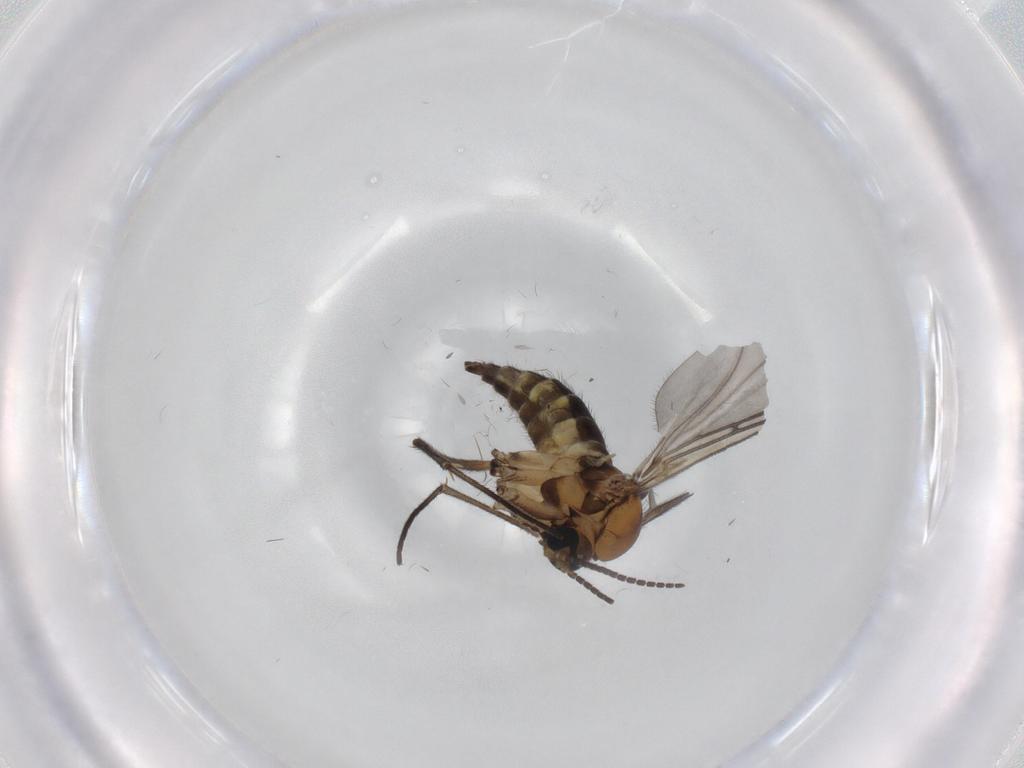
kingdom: Animalia
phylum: Arthropoda
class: Insecta
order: Diptera
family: Sciaridae
